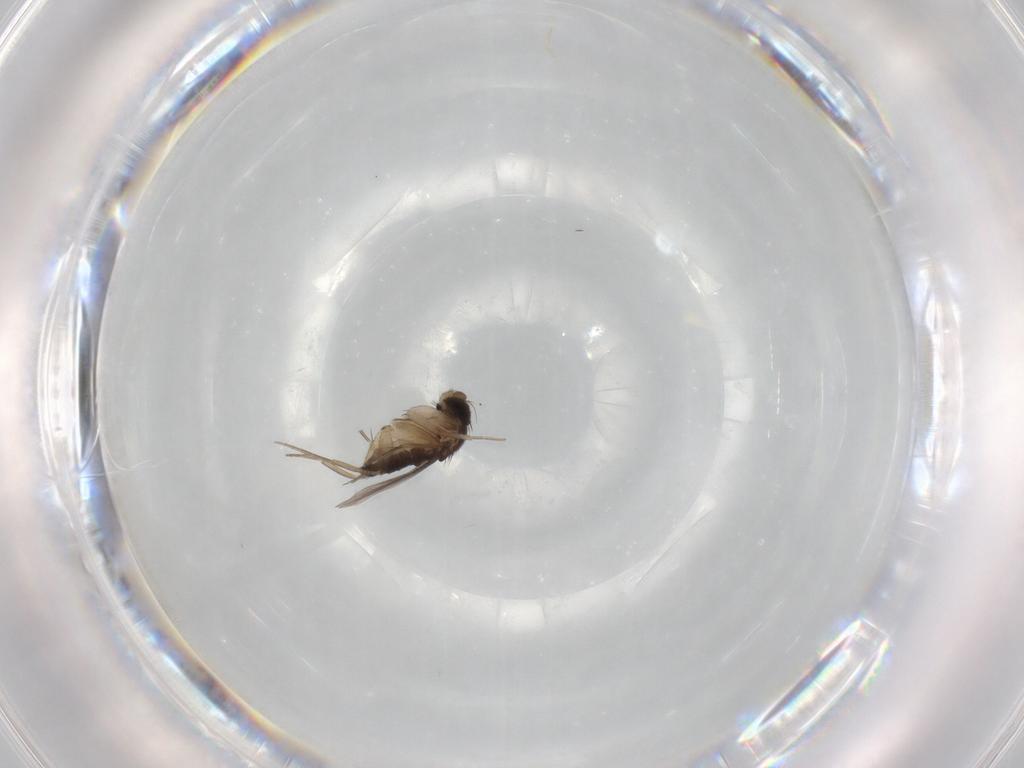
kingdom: Animalia
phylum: Arthropoda
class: Insecta
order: Diptera
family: Phoridae
